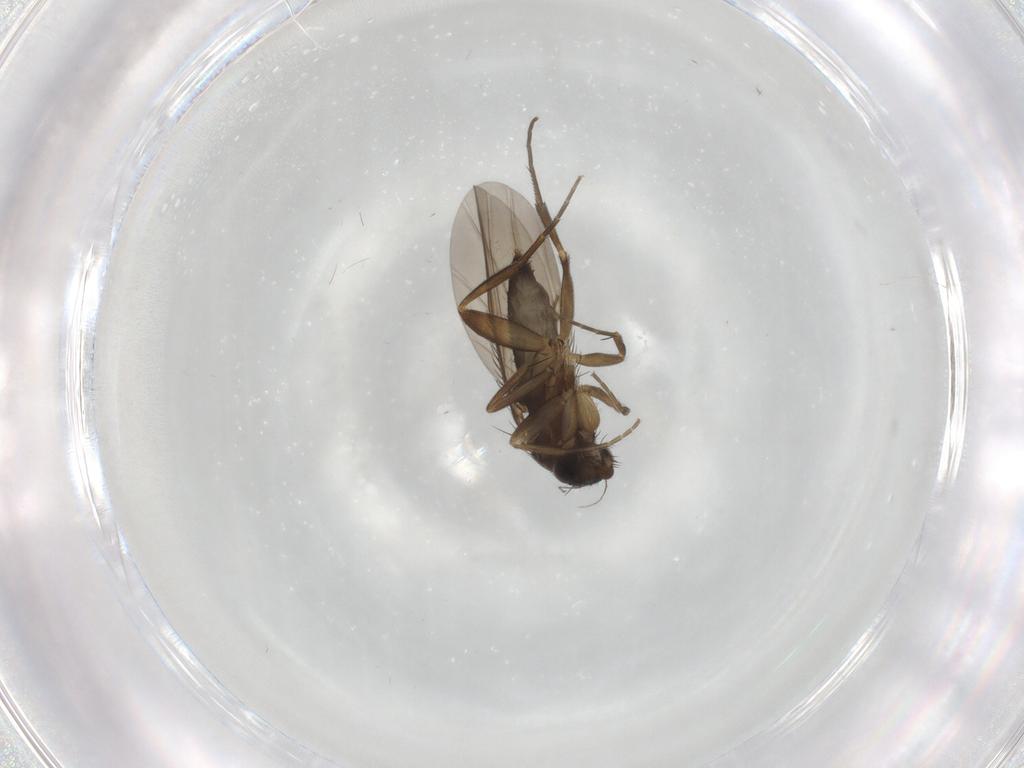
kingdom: Animalia
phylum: Arthropoda
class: Insecta
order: Diptera
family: Phoridae
